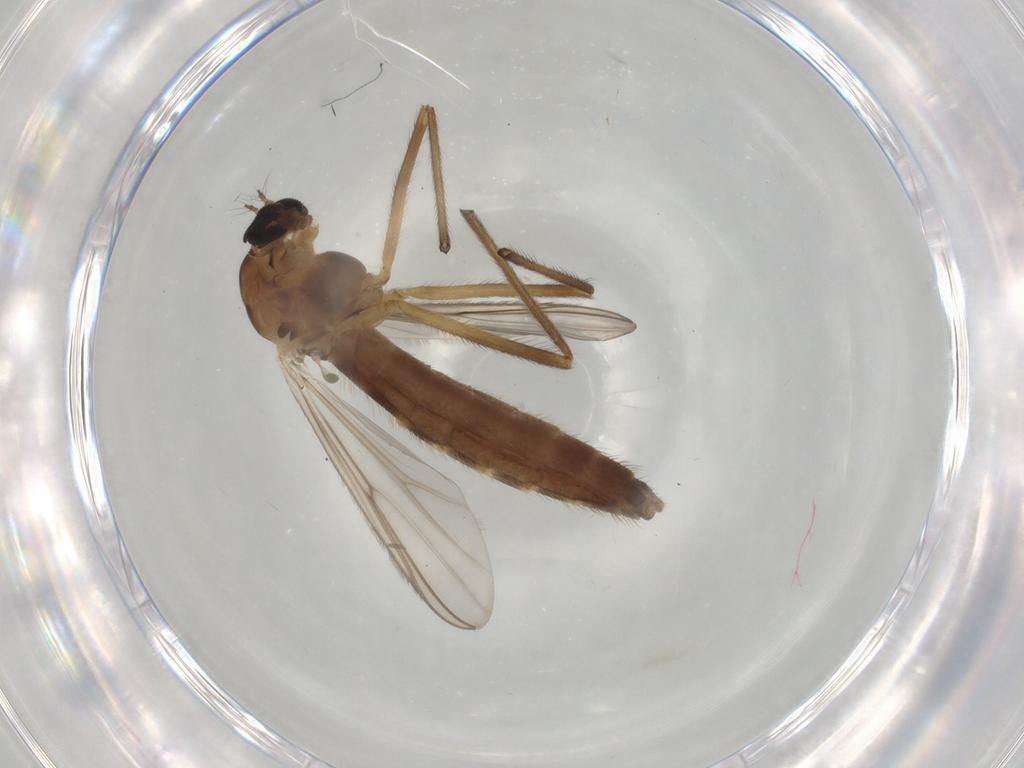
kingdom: Animalia
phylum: Arthropoda
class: Insecta
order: Diptera
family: Chironomidae
